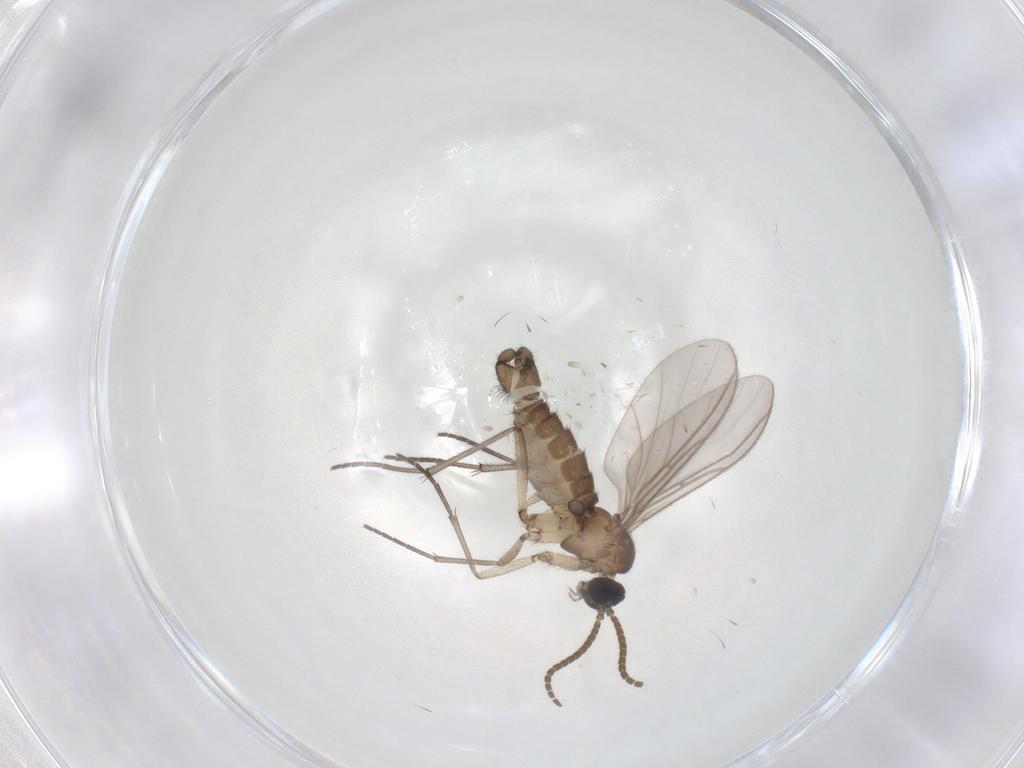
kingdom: Animalia
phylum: Arthropoda
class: Insecta
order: Diptera
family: Sciaridae
